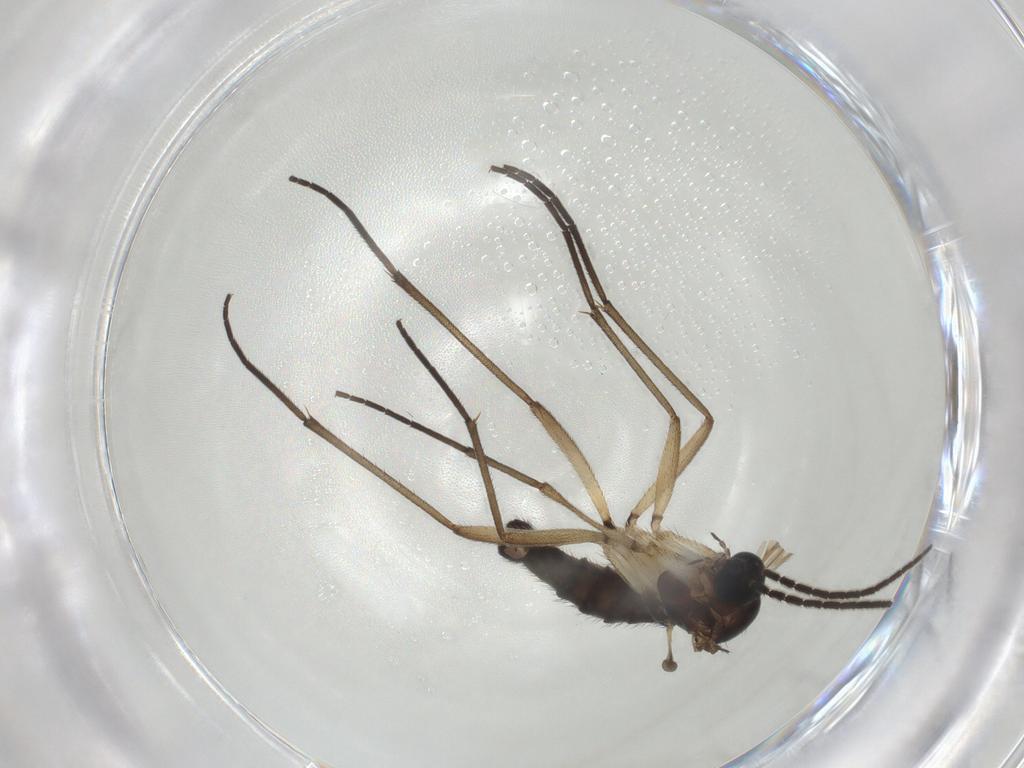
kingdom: Animalia
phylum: Arthropoda
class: Insecta
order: Diptera
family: Sciaridae
